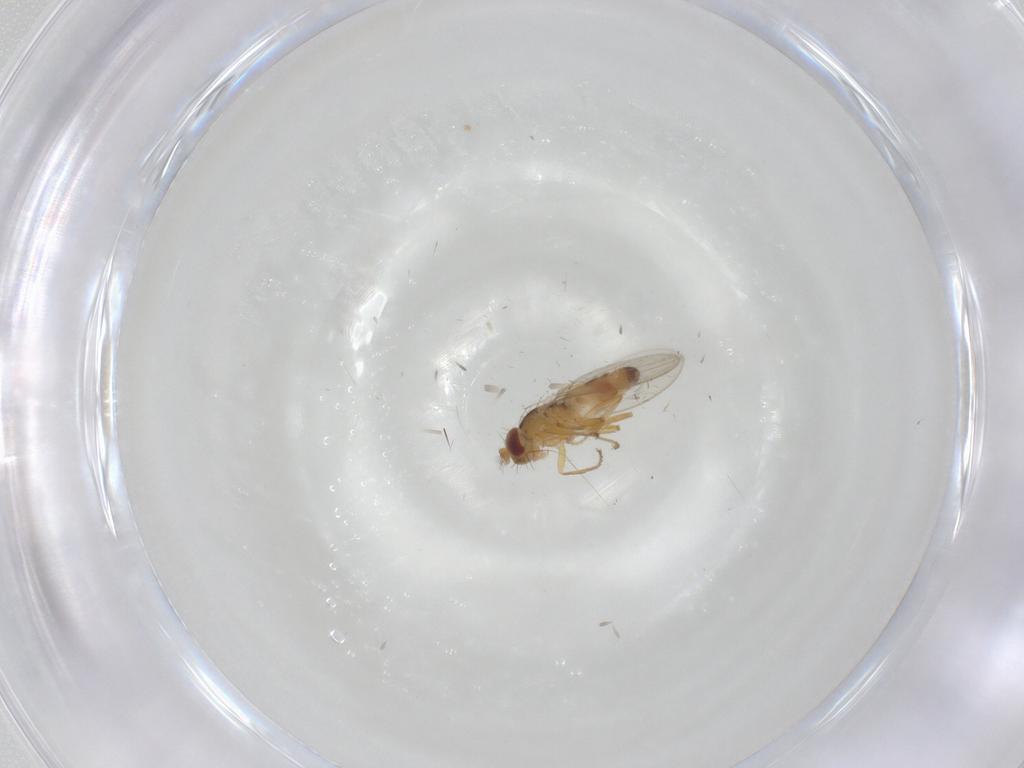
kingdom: Animalia
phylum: Arthropoda
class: Insecta
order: Diptera
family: Periscelididae
